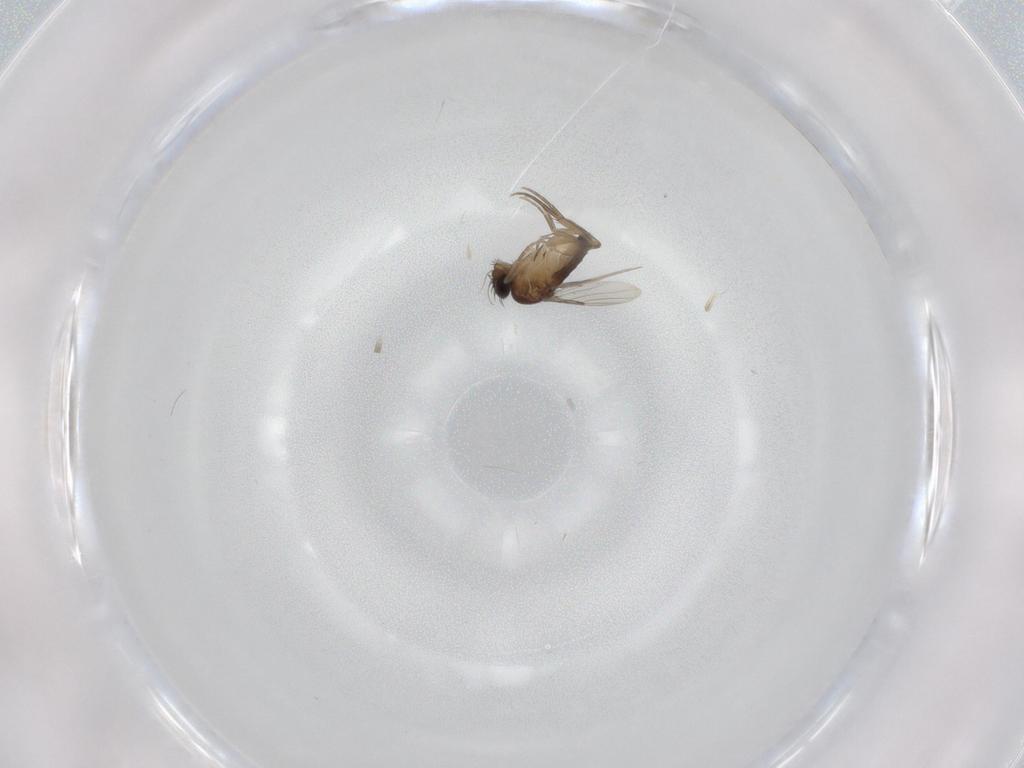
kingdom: Animalia
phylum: Arthropoda
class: Insecta
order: Diptera
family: Phoridae
